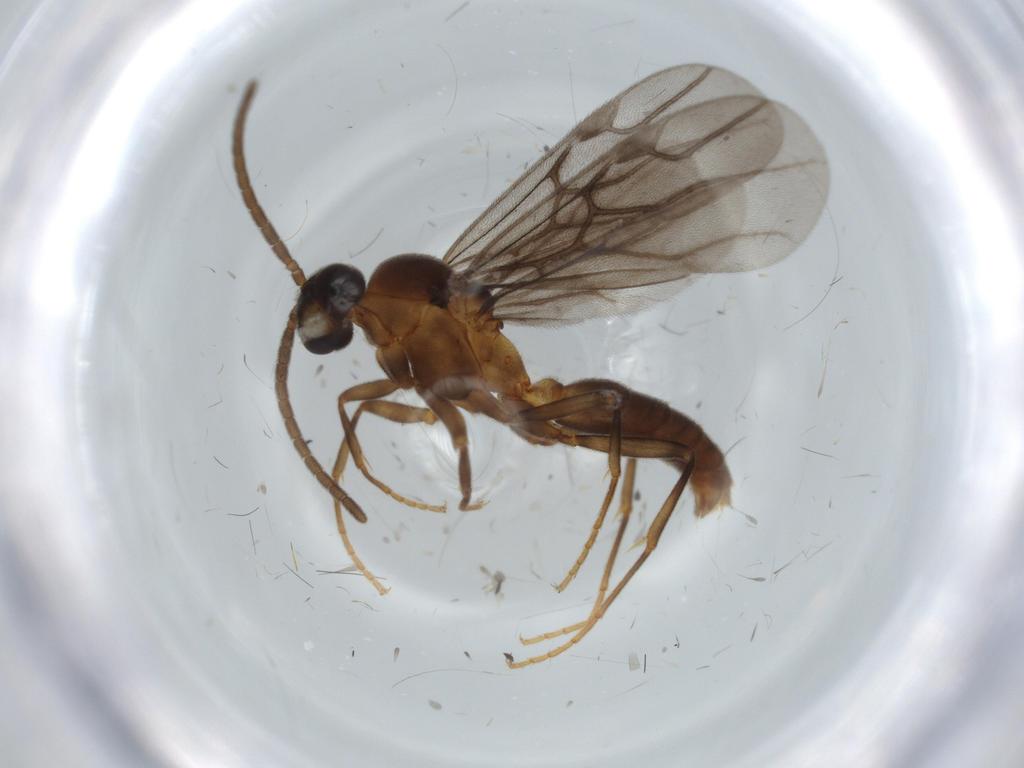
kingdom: Animalia
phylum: Arthropoda
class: Insecta
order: Hymenoptera
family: Formicidae
